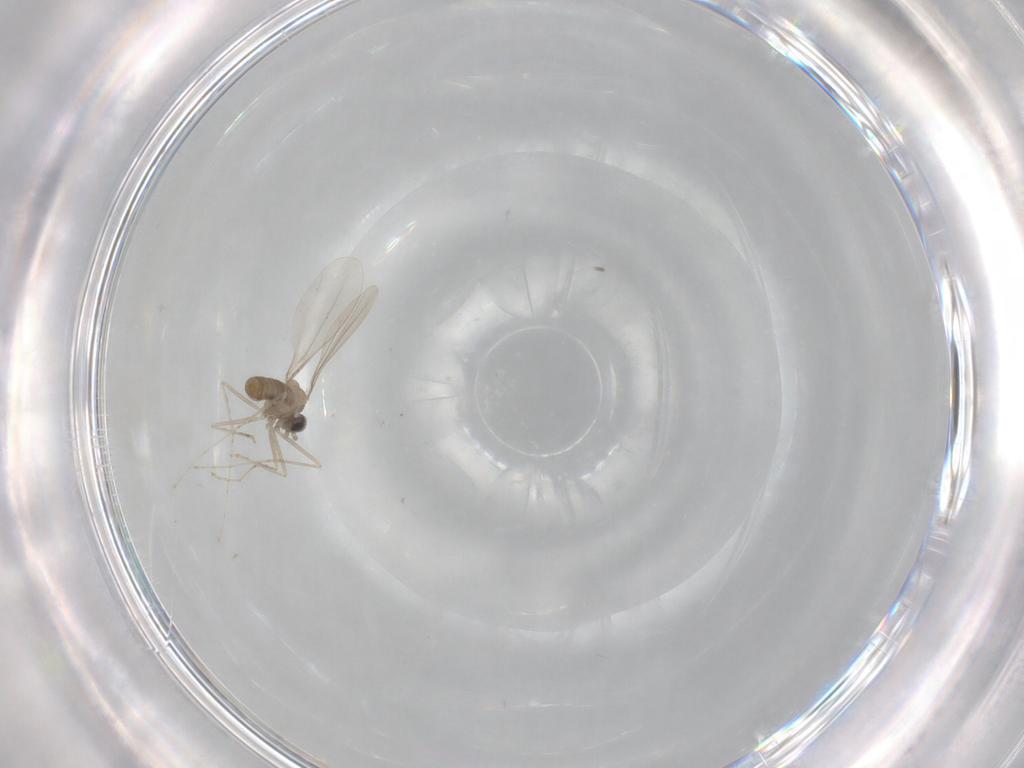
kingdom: Animalia
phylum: Arthropoda
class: Insecta
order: Diptera
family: Cecidomyiidae
